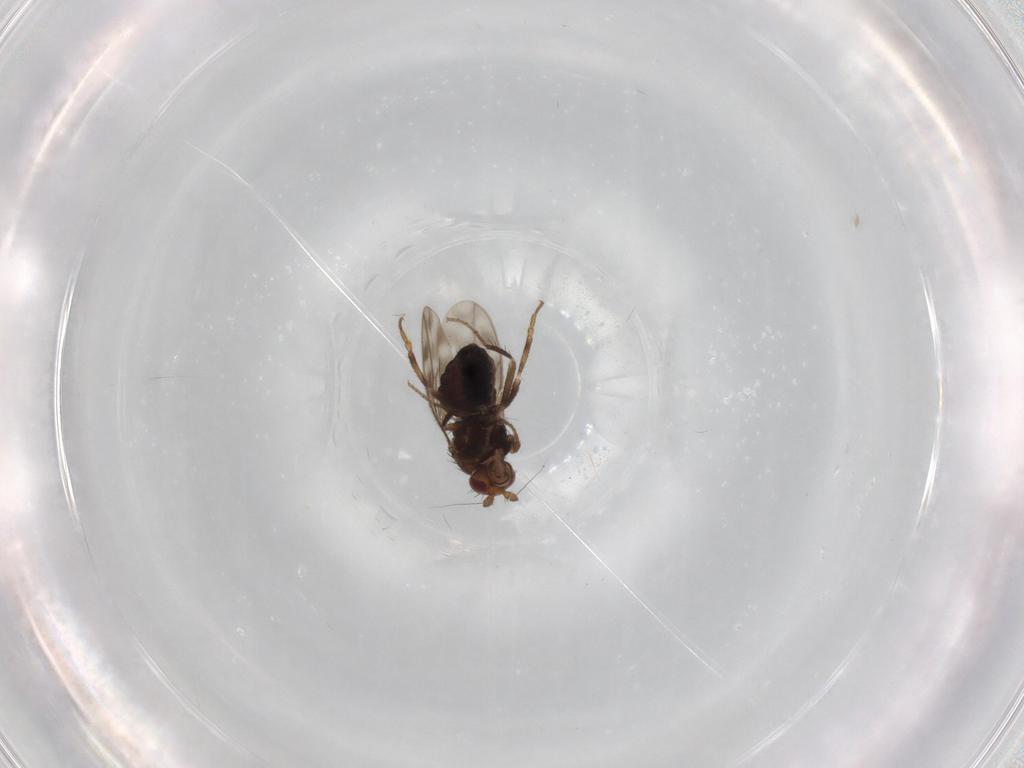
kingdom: Animalia
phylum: Arthropoda
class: Insecta
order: Diptera
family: Sphaeroceridae
